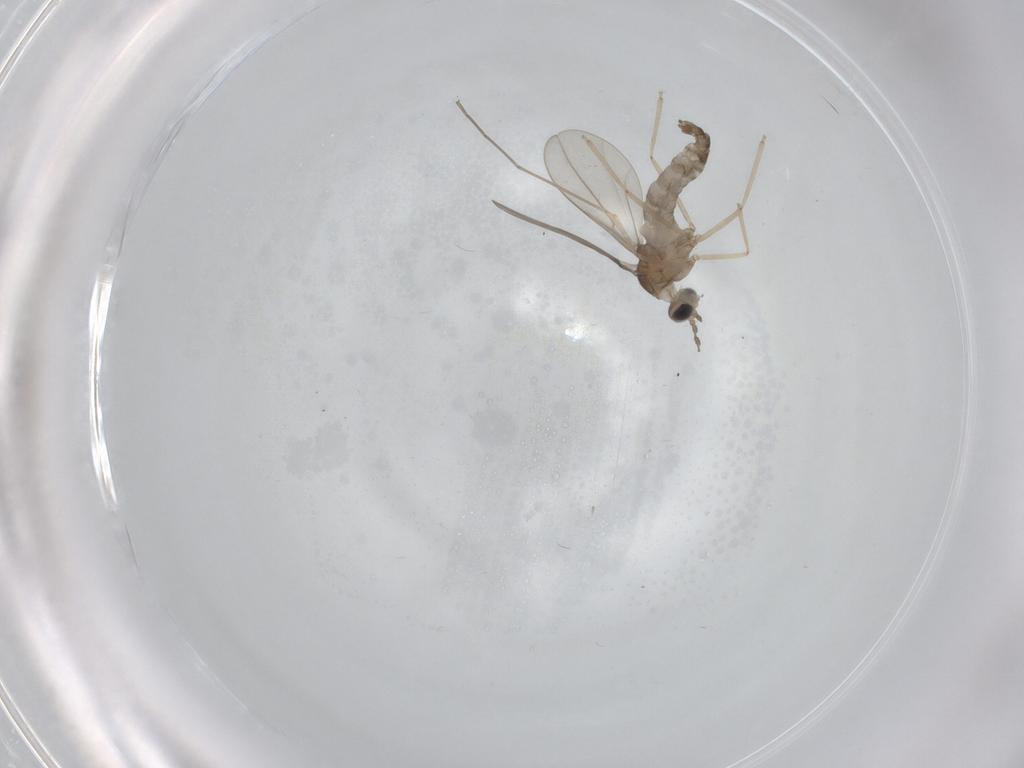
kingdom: Animalia
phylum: Arthropoda
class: Insecta
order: Diptera
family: Cecidomyiidae
